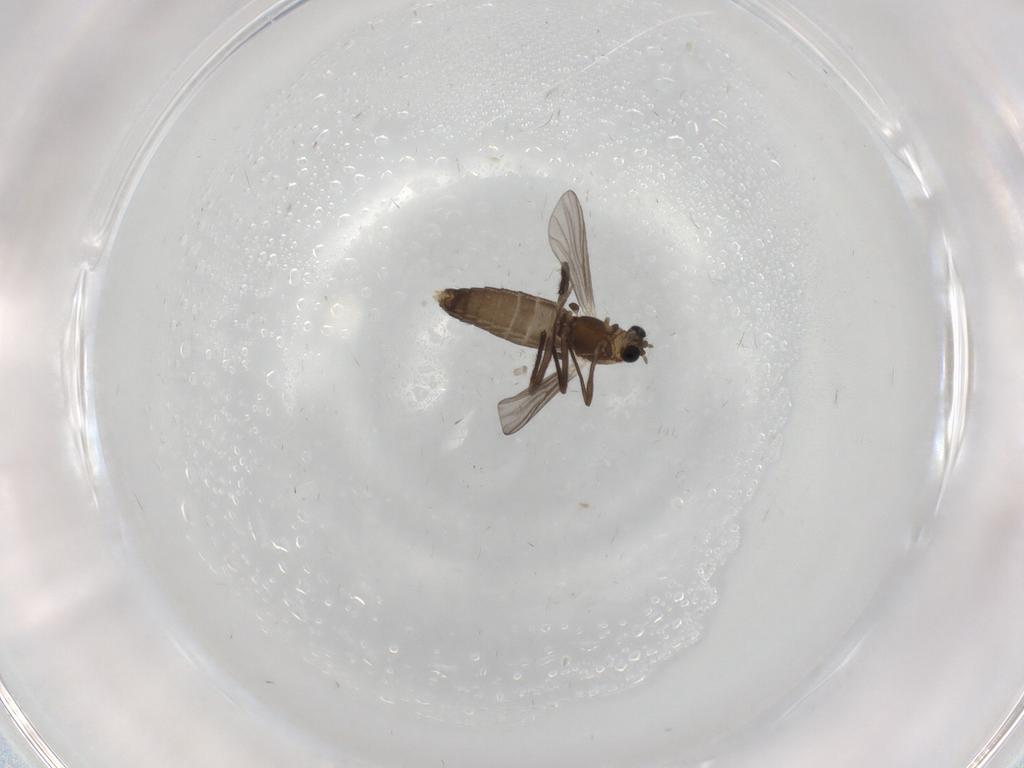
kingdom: Animalia
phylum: Arthropoda
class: Insecta
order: Diptera
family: Chironomidae
